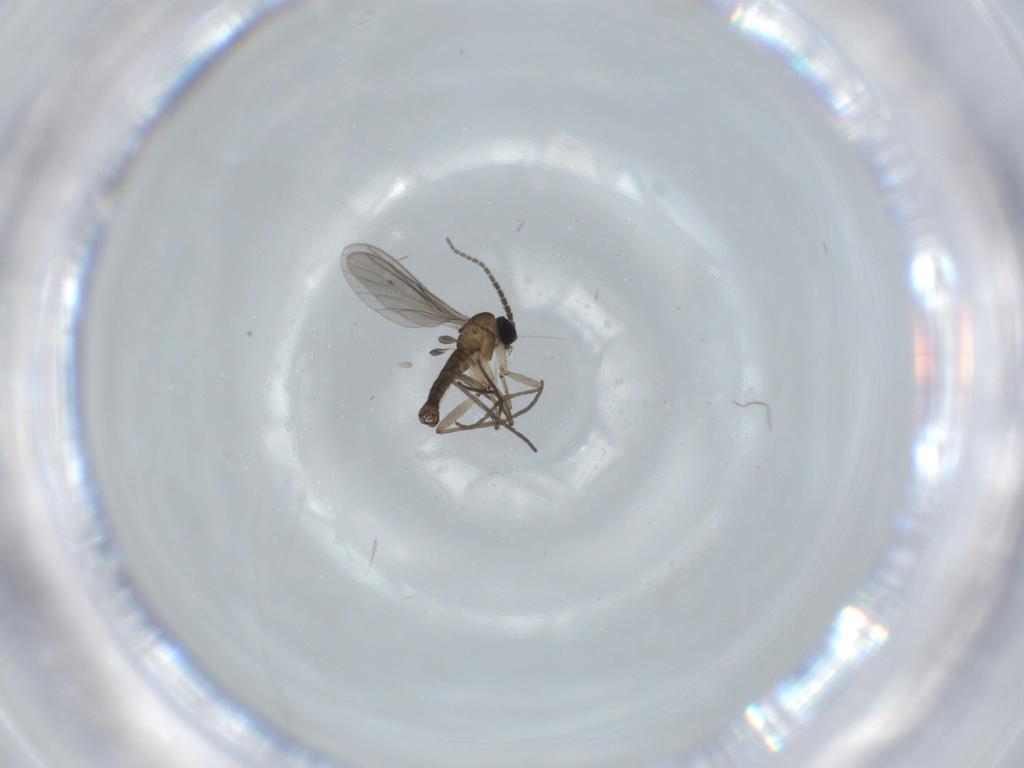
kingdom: Animalia
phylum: Arthropoda
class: Insecta
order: Diptera
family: Sciaridae
